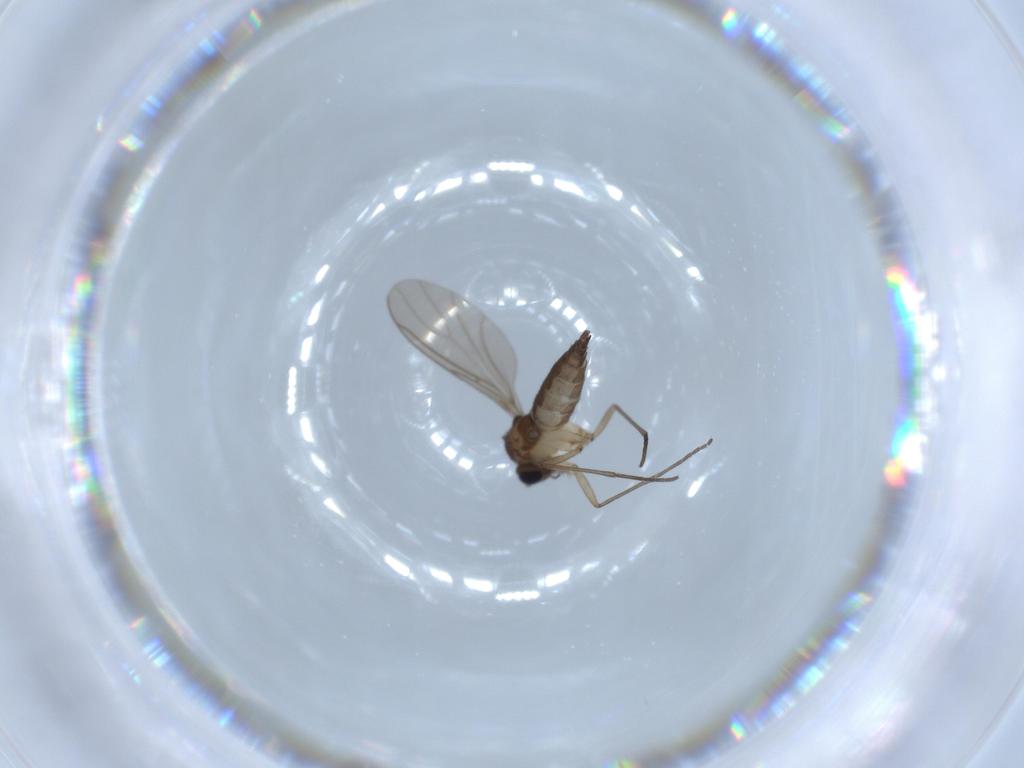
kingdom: Animalia
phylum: Arthropoda
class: Insecta
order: Diptera
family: Sciaridae
